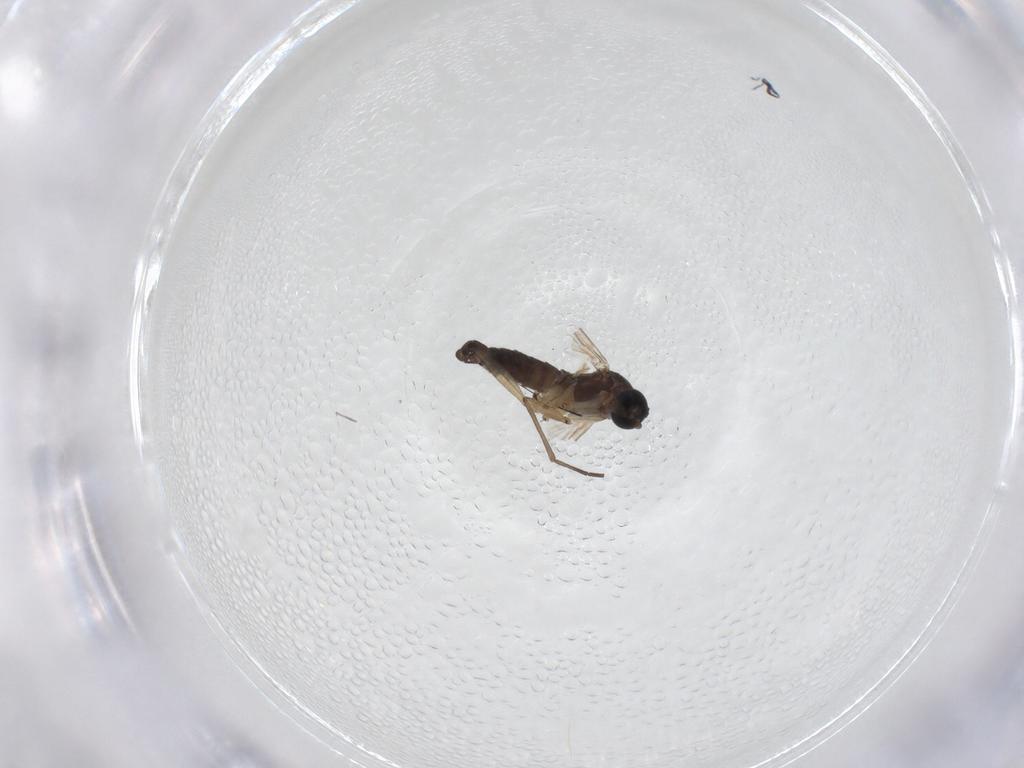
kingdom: Animalia
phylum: Arthropoda
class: Insecta
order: Diptera
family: Sciaridae
